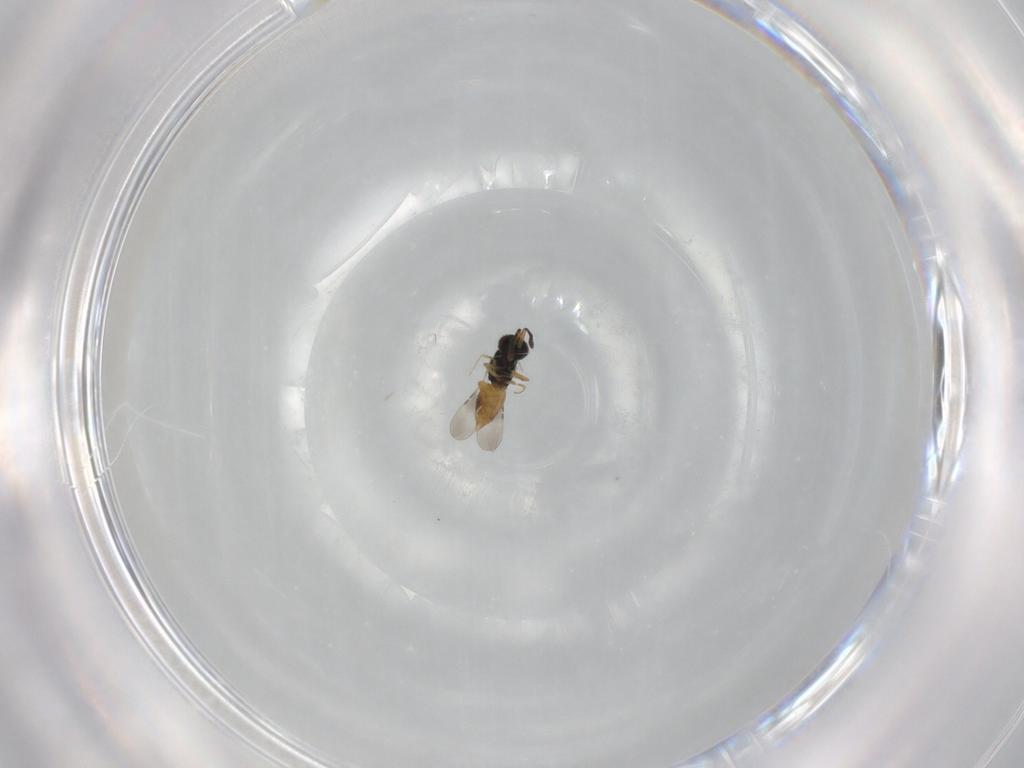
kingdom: Animalia
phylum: Arthropoda
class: Insecta
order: Hymenoptera
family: Ceraphronidae
